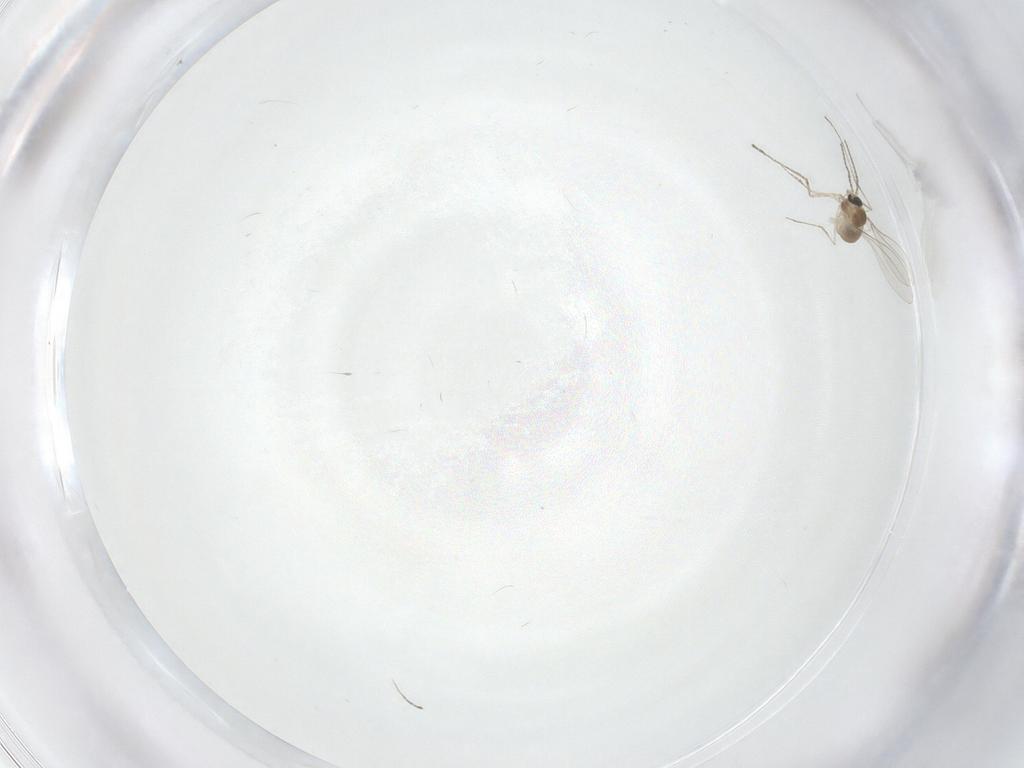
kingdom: Animalia
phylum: Arthropoda
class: Insecta
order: Diptera
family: Cecidomyiidae
